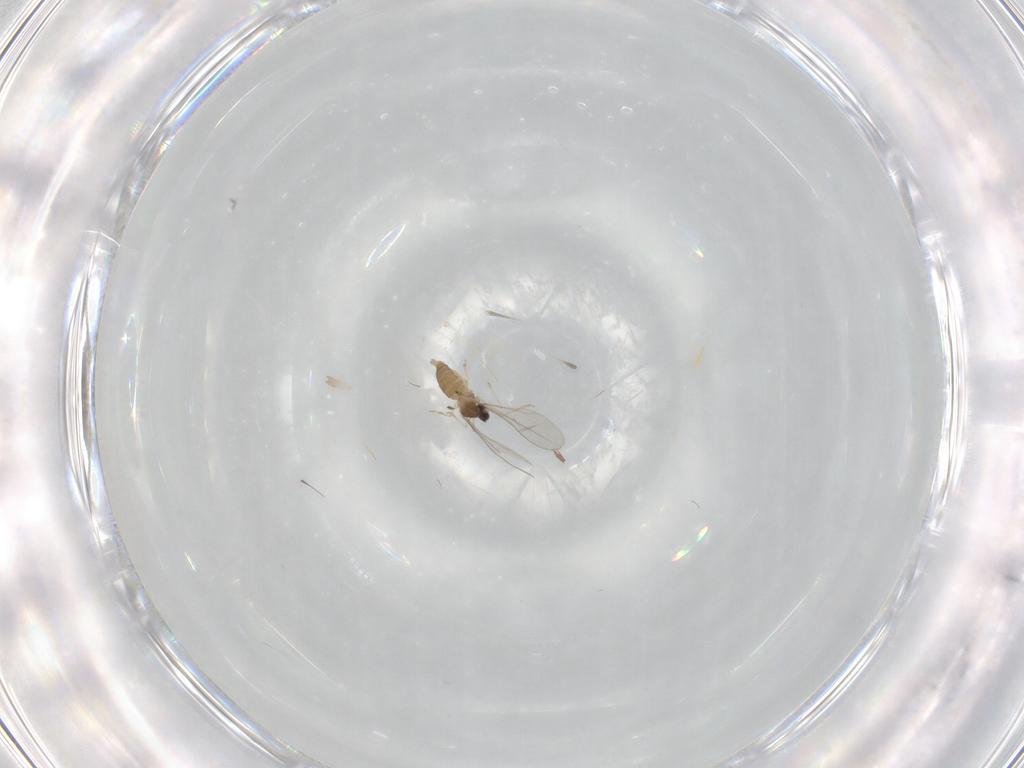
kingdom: Animalia
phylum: Arthropoda
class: Insecta
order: Diptera
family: Cecidomyiidae
